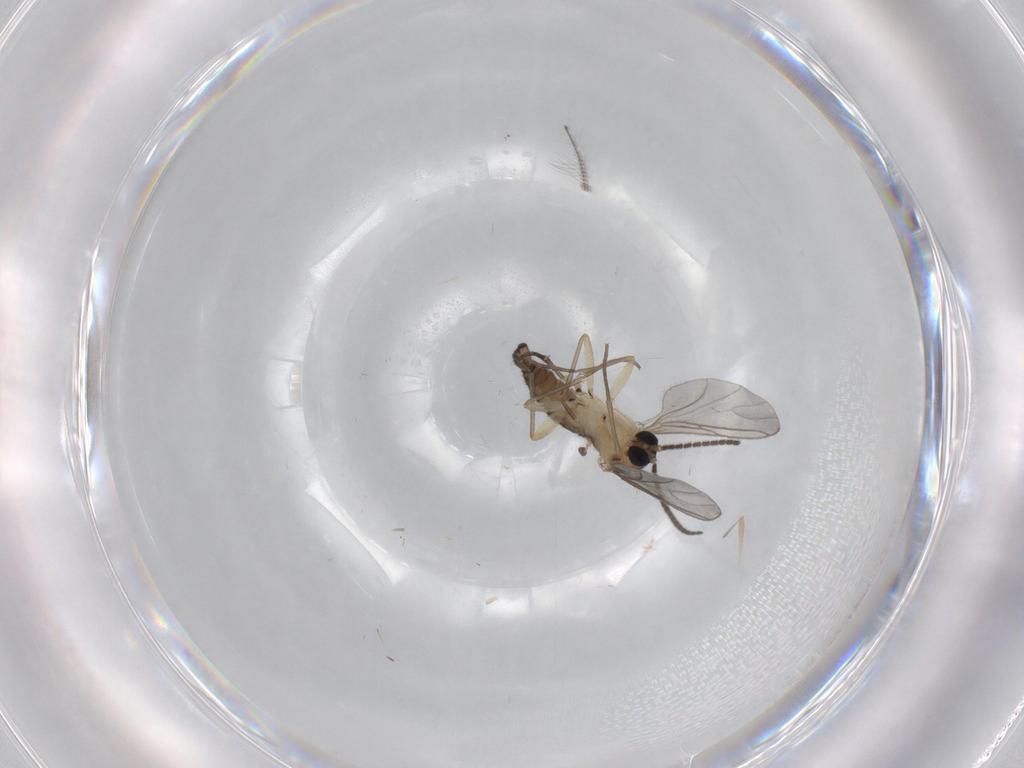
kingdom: Animalia
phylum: Arthropoda
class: Insecta
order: Diptera
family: Sciaridae
